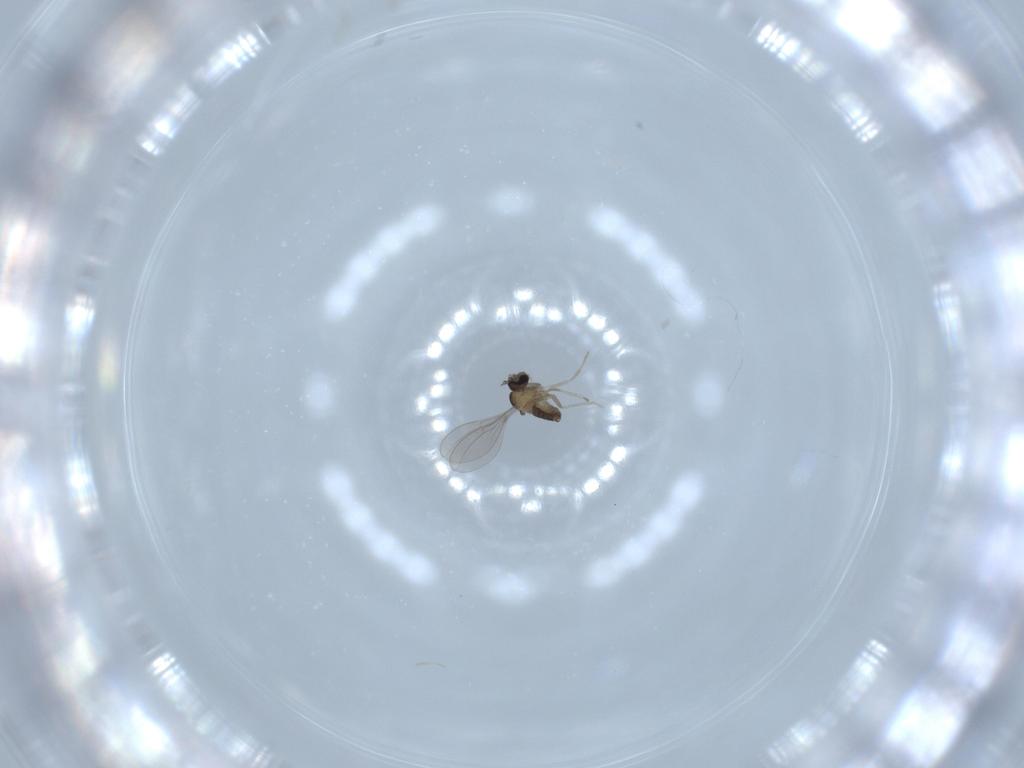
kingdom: Animalia
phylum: Arthropoda
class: Insecta
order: Diptera
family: Cecidomyiidae
